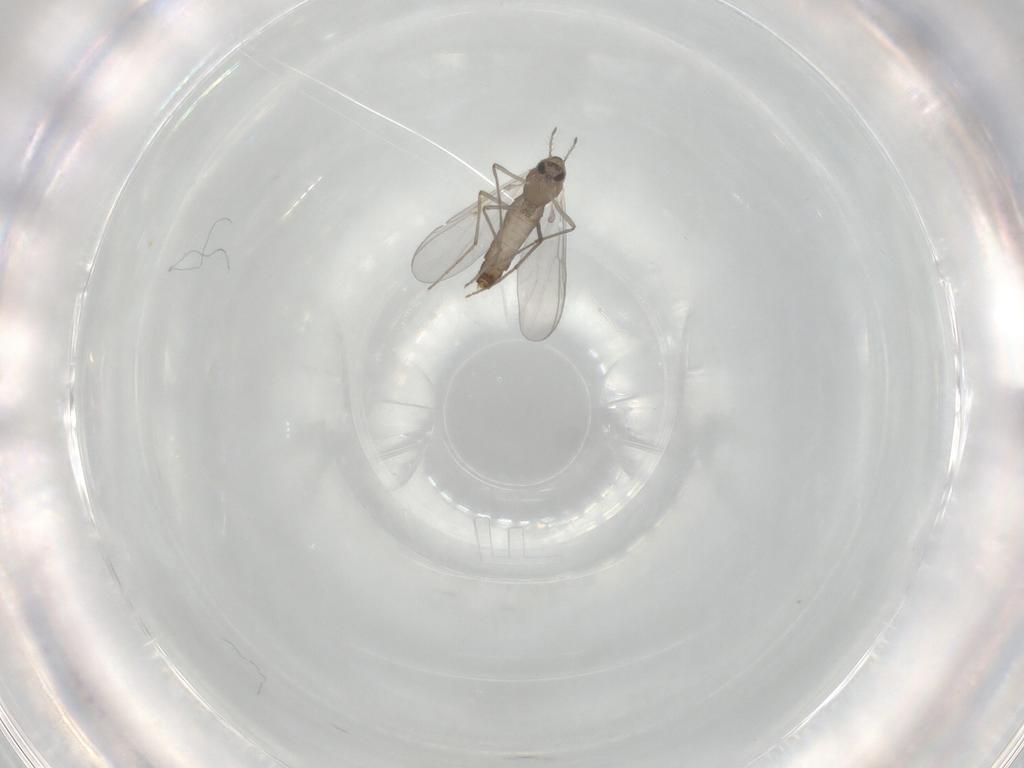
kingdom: Animalia
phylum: Arthropoda
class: Insecta
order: Diptera
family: Chironomidae
